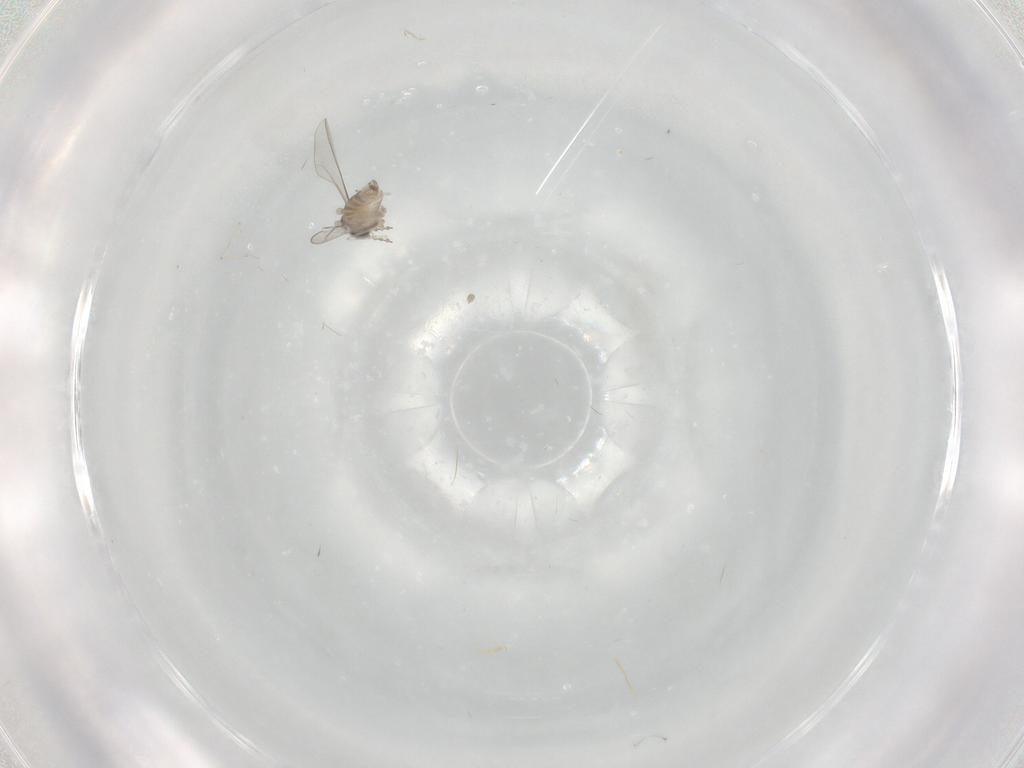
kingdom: Animalia
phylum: Arthropoda
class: Insecta
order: Diptera
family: Cecidomyiidae
